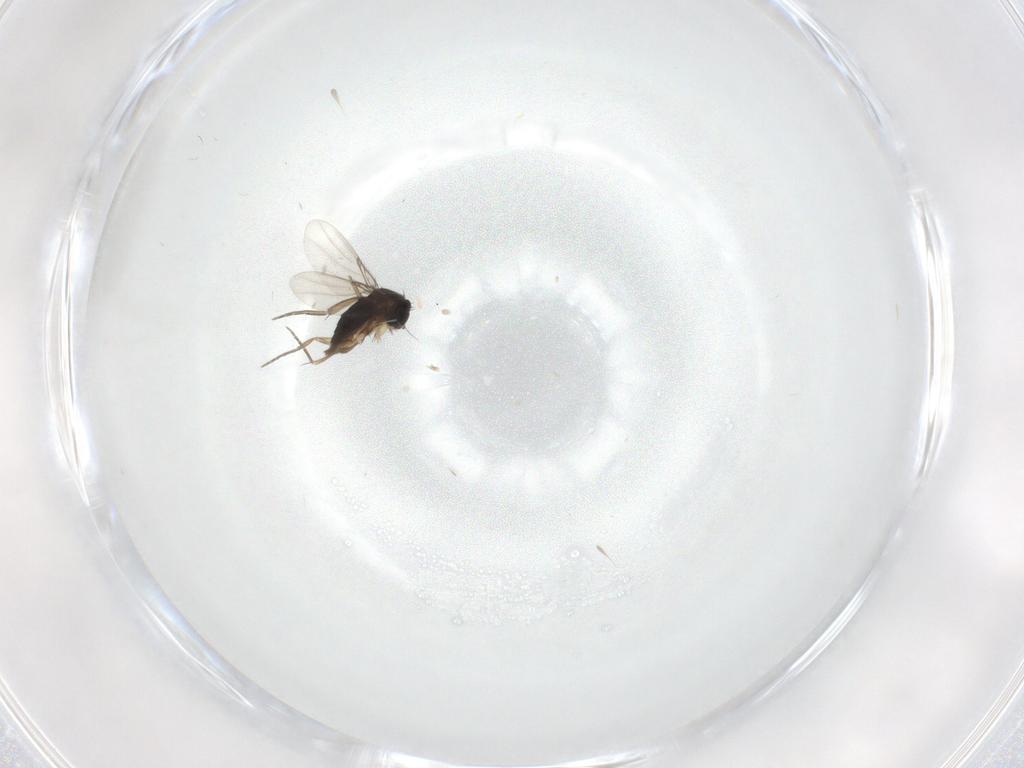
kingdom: Animalia
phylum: Arthropoda
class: Insecta
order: Diptera
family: Phoridae
